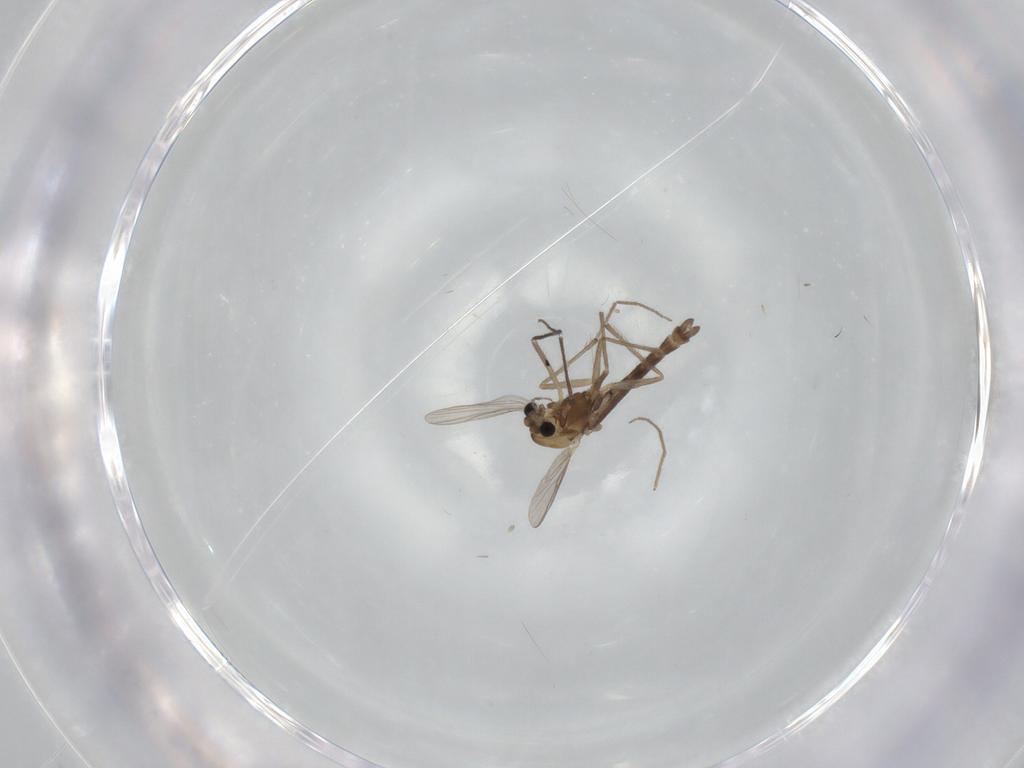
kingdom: Animalia
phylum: Arthropoda
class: Insecta
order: Diptera
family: Chironomidae
